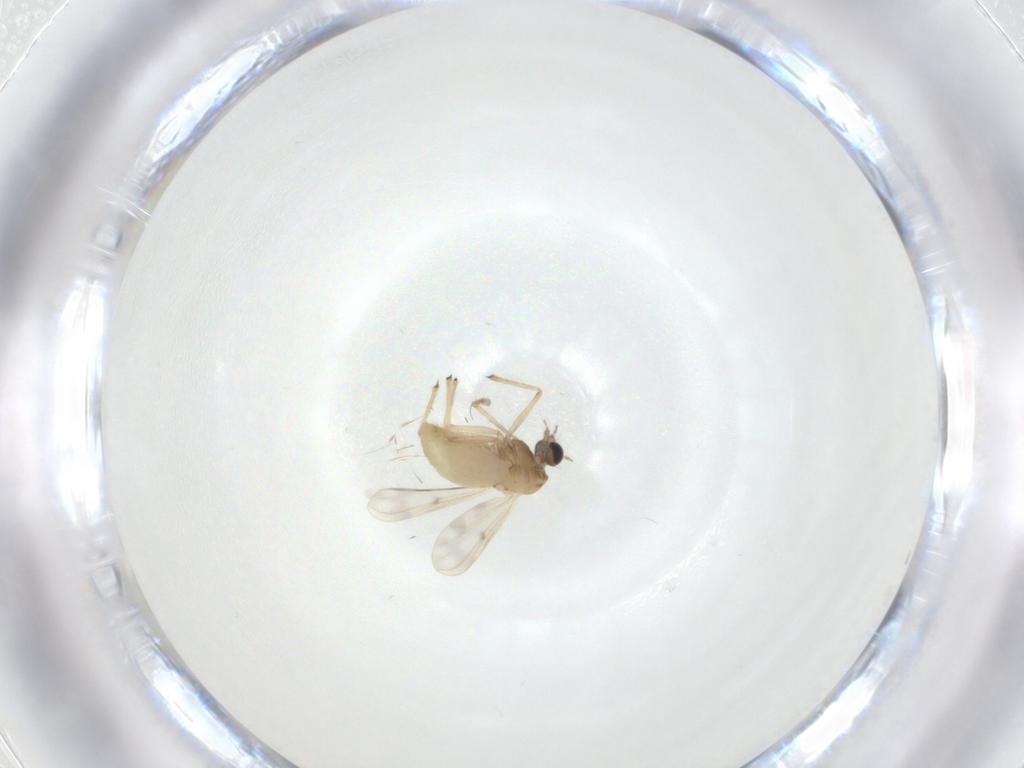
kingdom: Animalia
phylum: Arthropoda
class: Insecta
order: Diptera
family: Chironomidae
